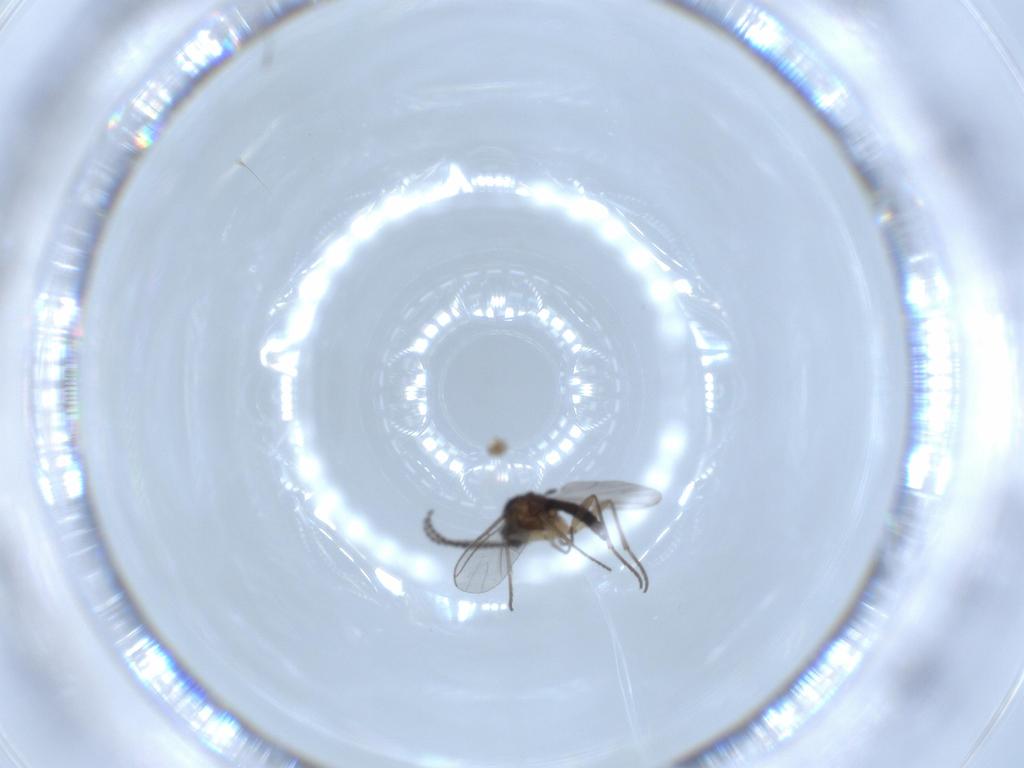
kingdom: Animalia
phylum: Arthropoda
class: Insecta
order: Diptera
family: Sciaridae
